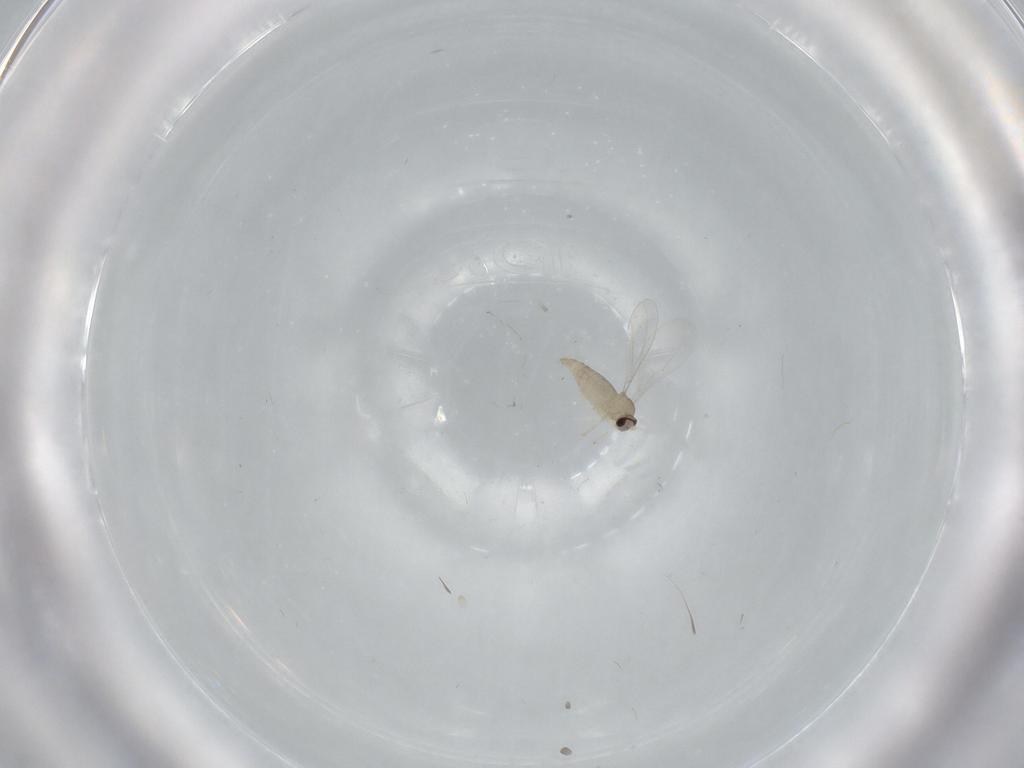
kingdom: Animalia
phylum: Arthropoda
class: Insecta
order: Diptera
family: Cecidomyiidae
